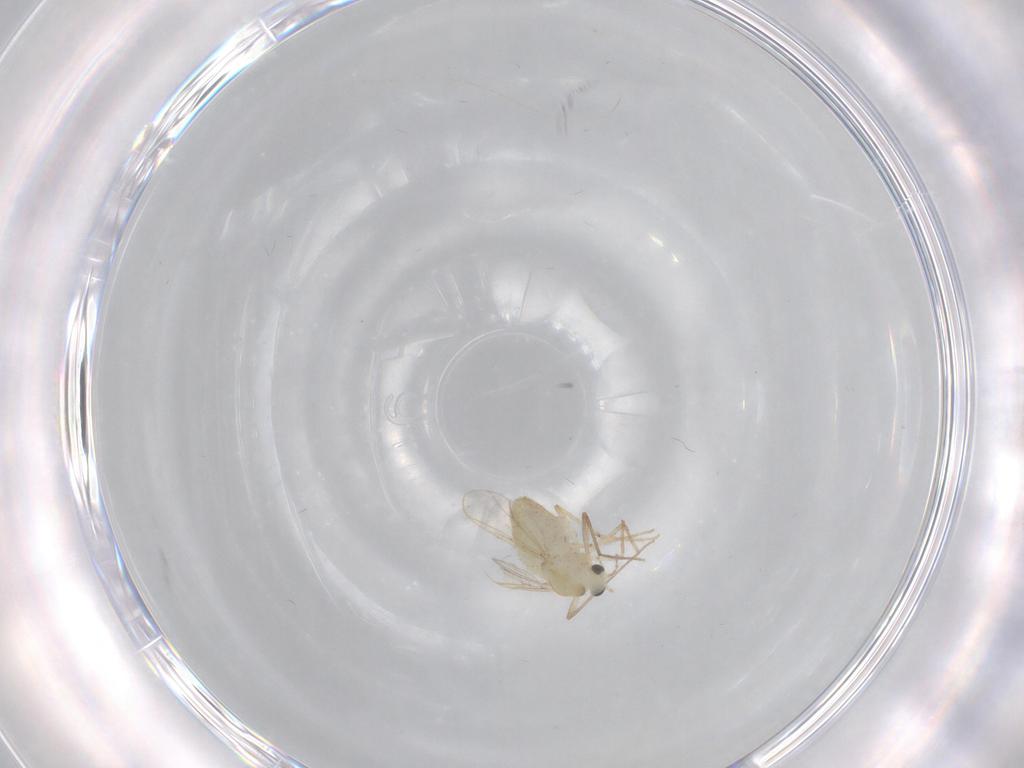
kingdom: Animalia
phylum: Arthropoda
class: Insecta
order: Diptera
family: Chironomidae
